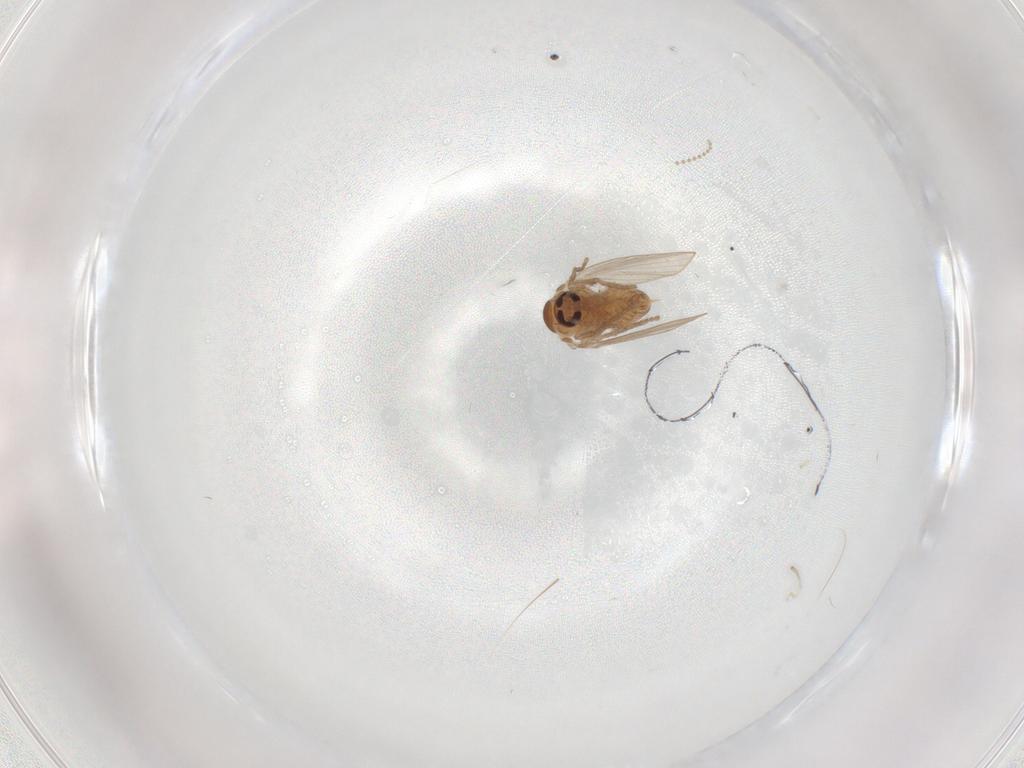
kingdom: Animalia
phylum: Arthropoda
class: Insecta
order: Diptera
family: Psychodidae
